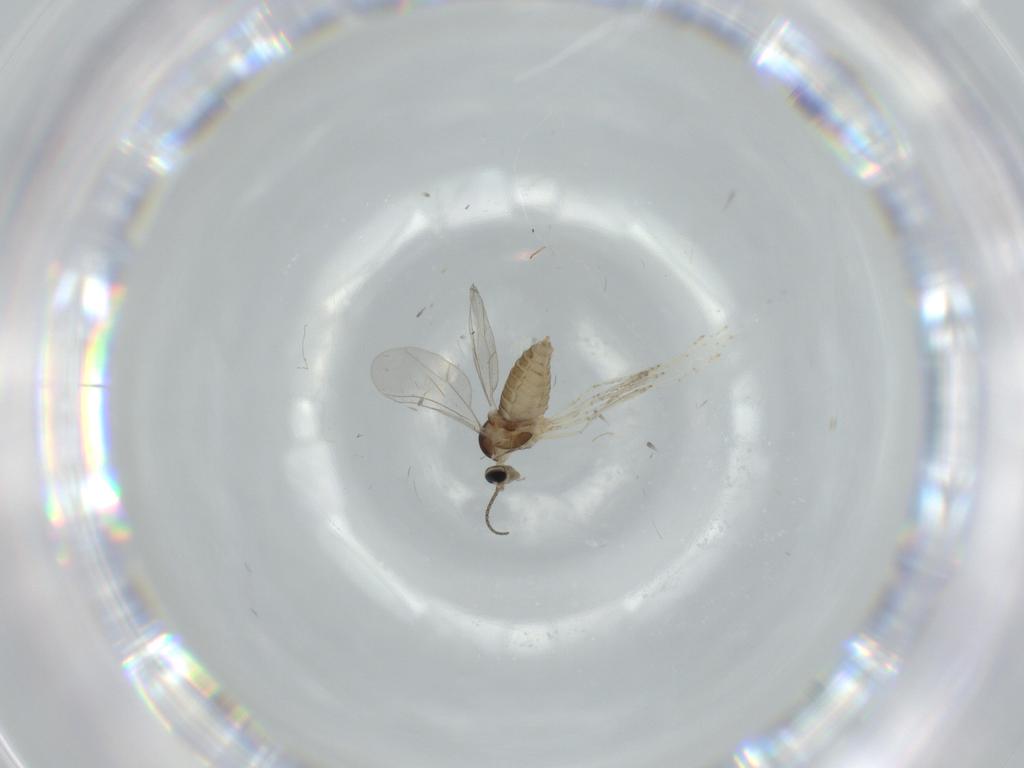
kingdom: Animalia
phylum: Arthropoda
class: Insecta
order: Diptera
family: Cecidomyiidae
